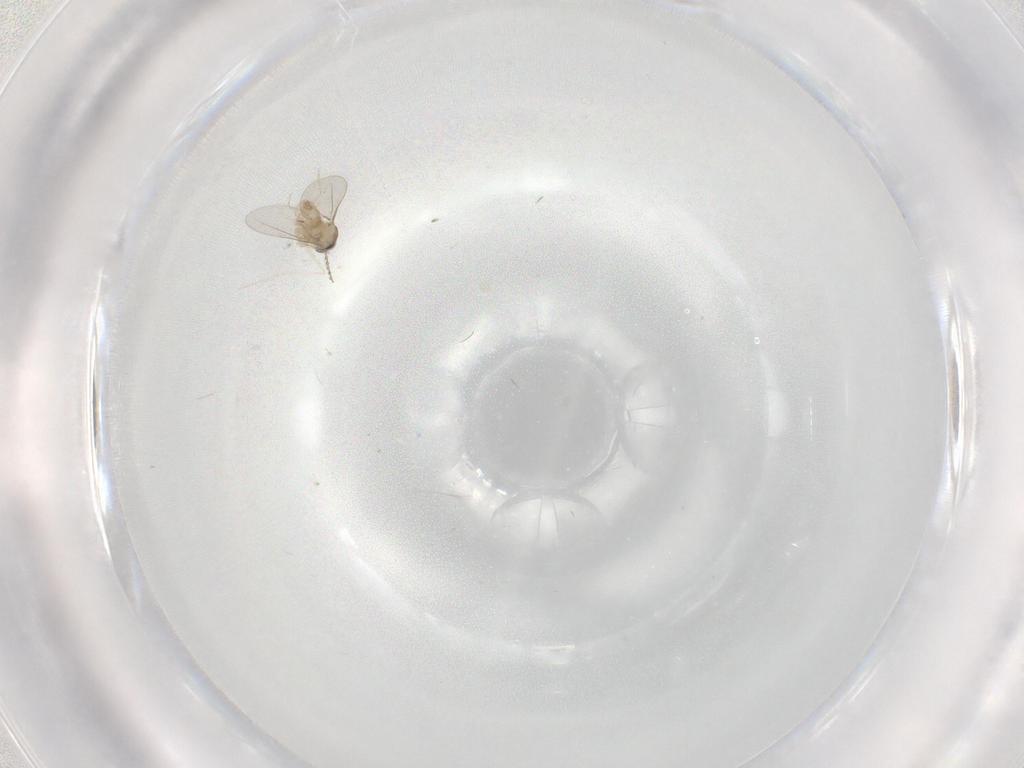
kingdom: Animalia
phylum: Arthropoda
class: Insecta
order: Diptera
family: Cecidomyiidae
